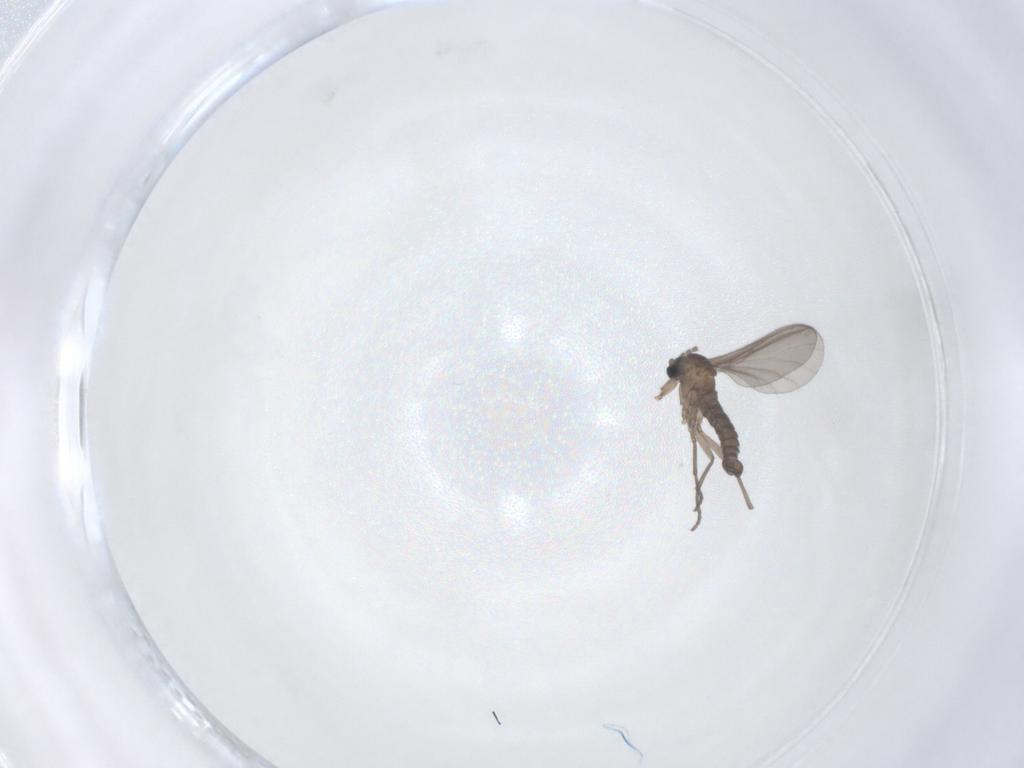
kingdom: Animalia
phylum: Arthropoda
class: Insecta
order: Diptera
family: Sciaridae
